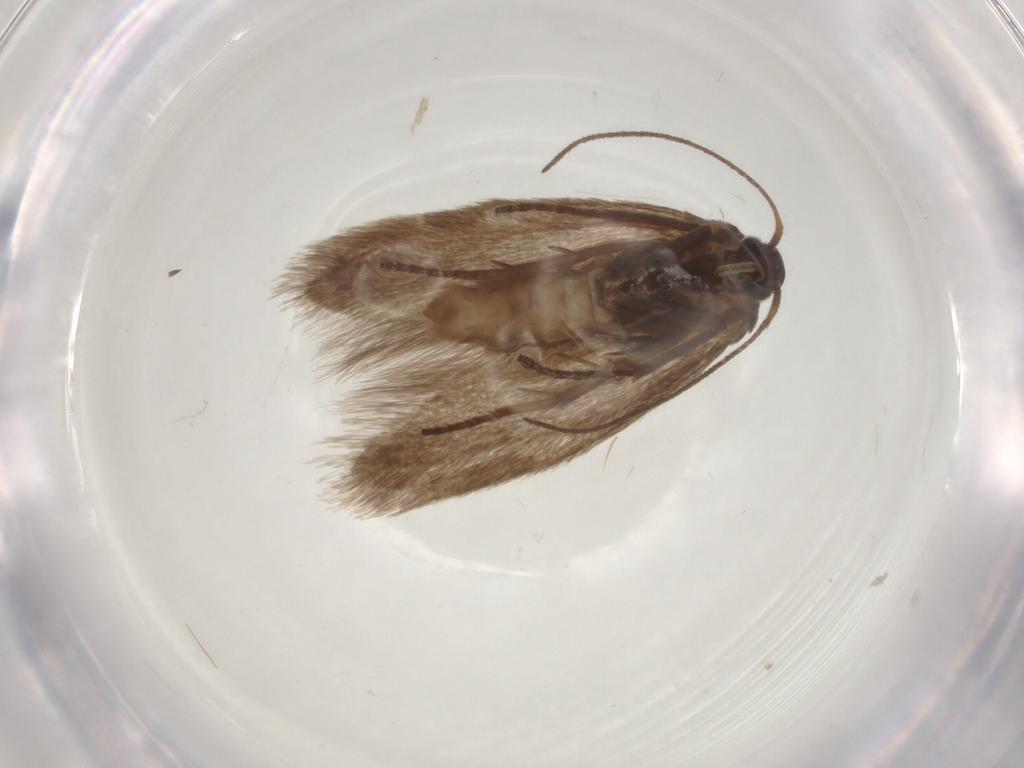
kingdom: Animalia
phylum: Arthropoda
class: Insecta
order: Lepidoptera
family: Limacodidae
